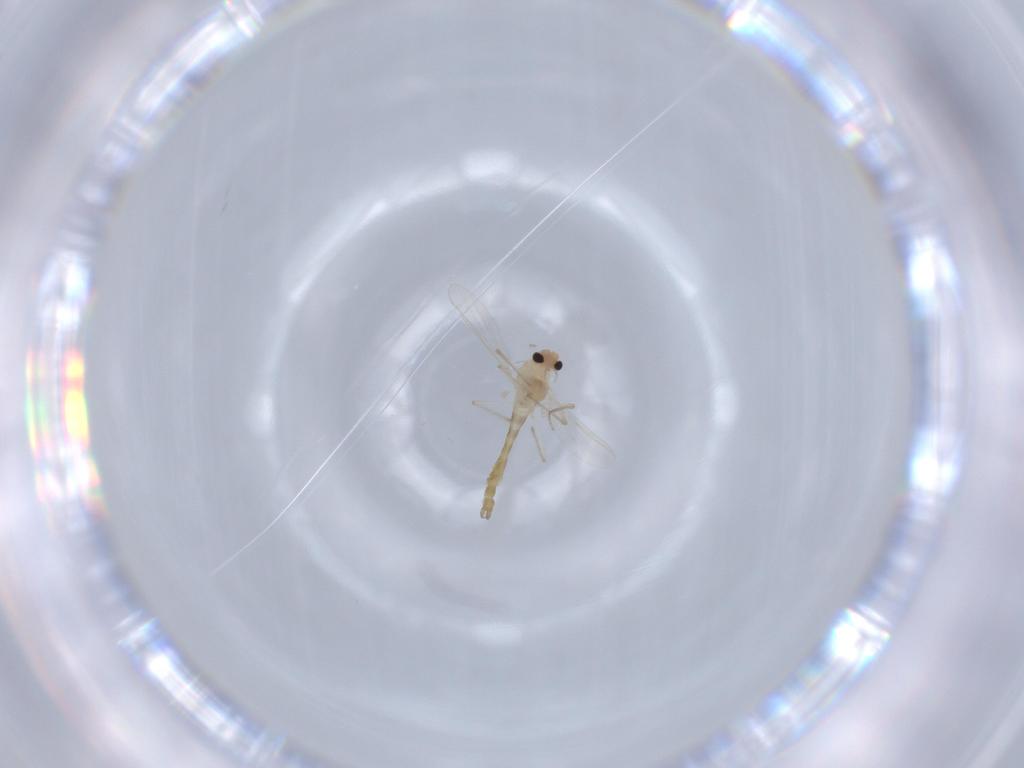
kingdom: Animalia
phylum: Arthropoda
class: Insecta
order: Diptera
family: Chironomidae
